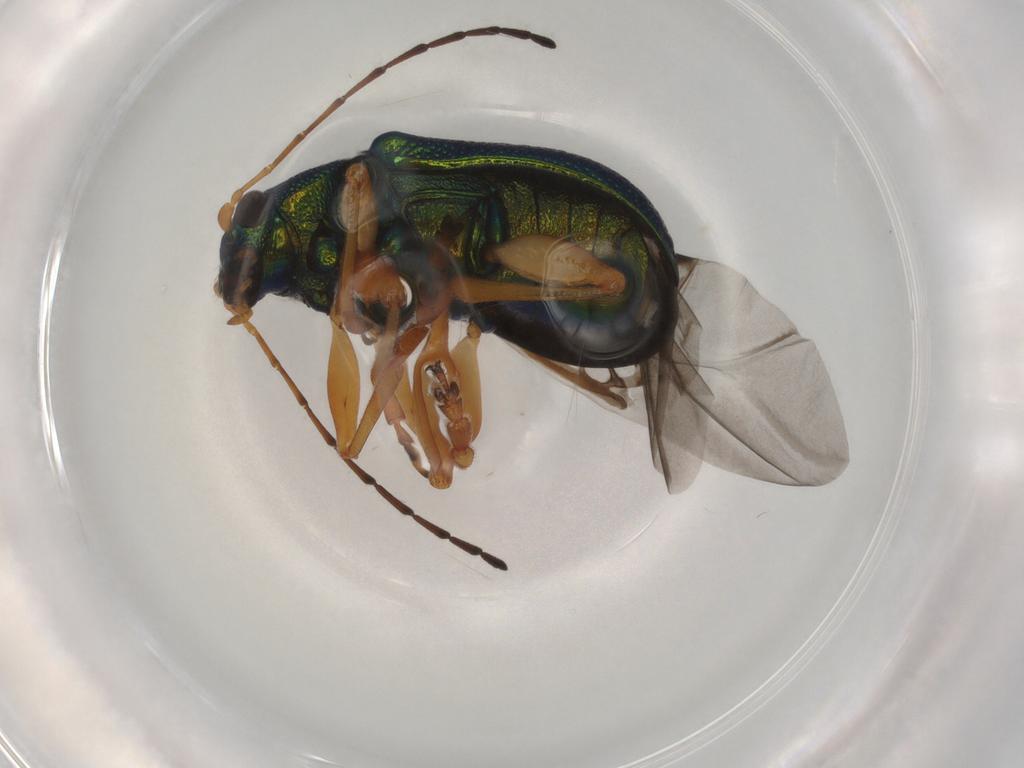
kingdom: Animalia
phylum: Arthropoda
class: Insecta
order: Coleoptera
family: Chrysomelidae
